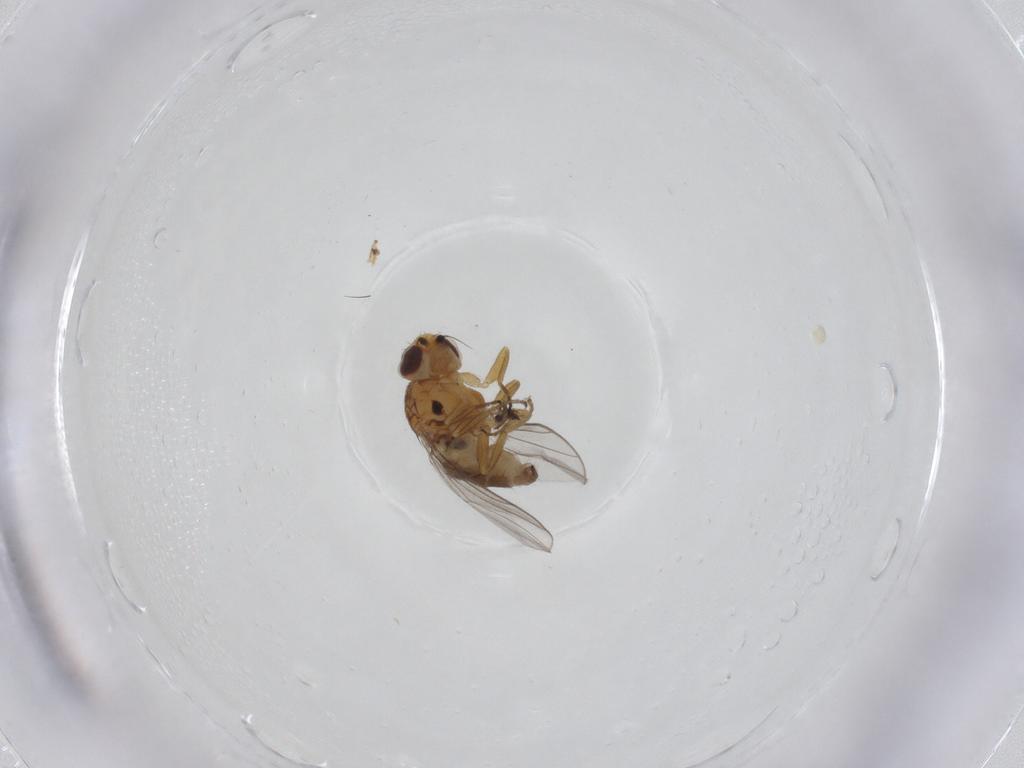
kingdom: Animalia
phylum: Arthropoda
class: Insecta
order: Diptera
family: Chloropidae
